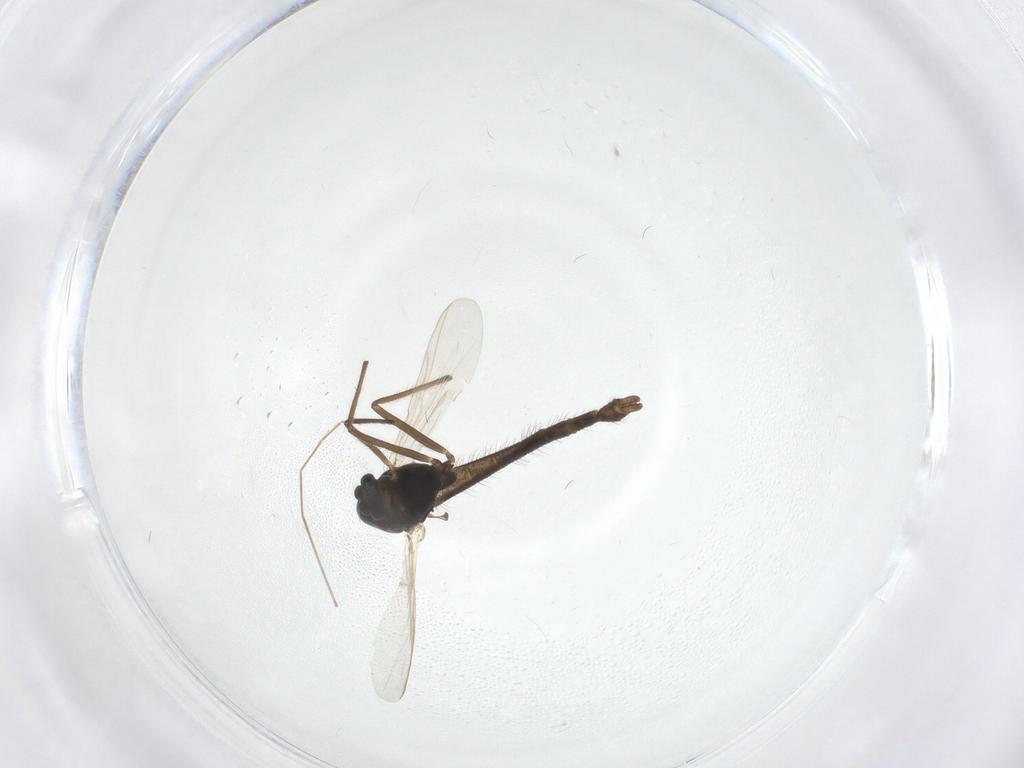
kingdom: Animalia
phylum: Arthropoda
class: Insecta
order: Diptera
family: Chironomidae
